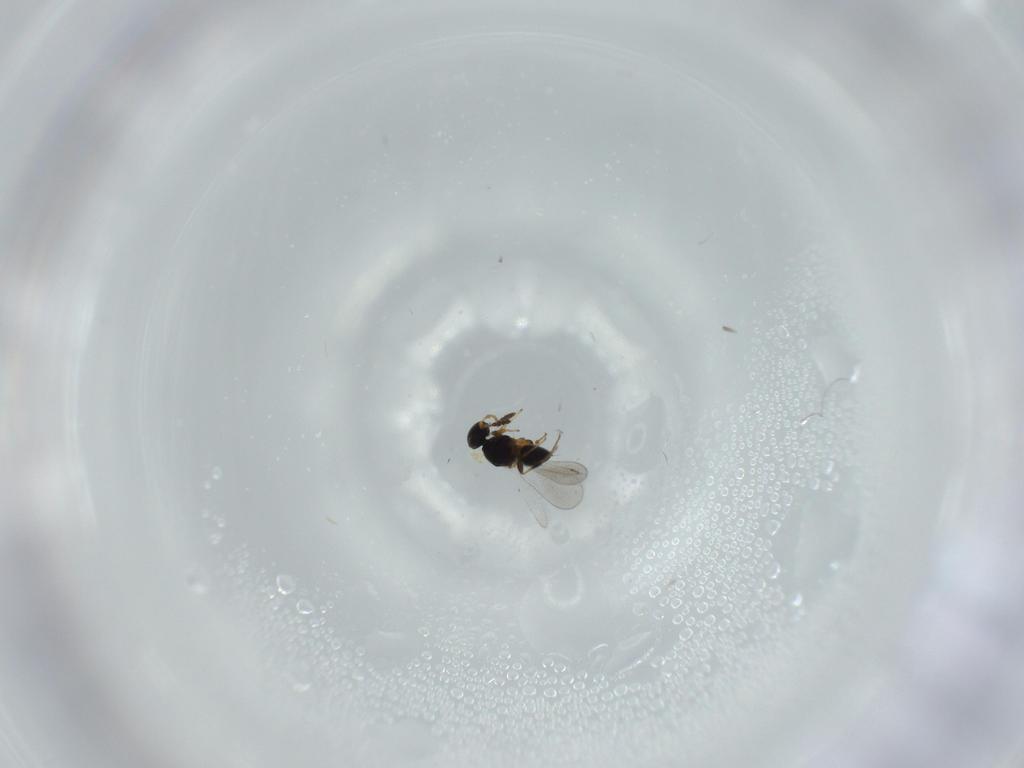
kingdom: Animalia
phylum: Arthropoda
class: Insecta
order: Hymenoptera
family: Platygastridae
